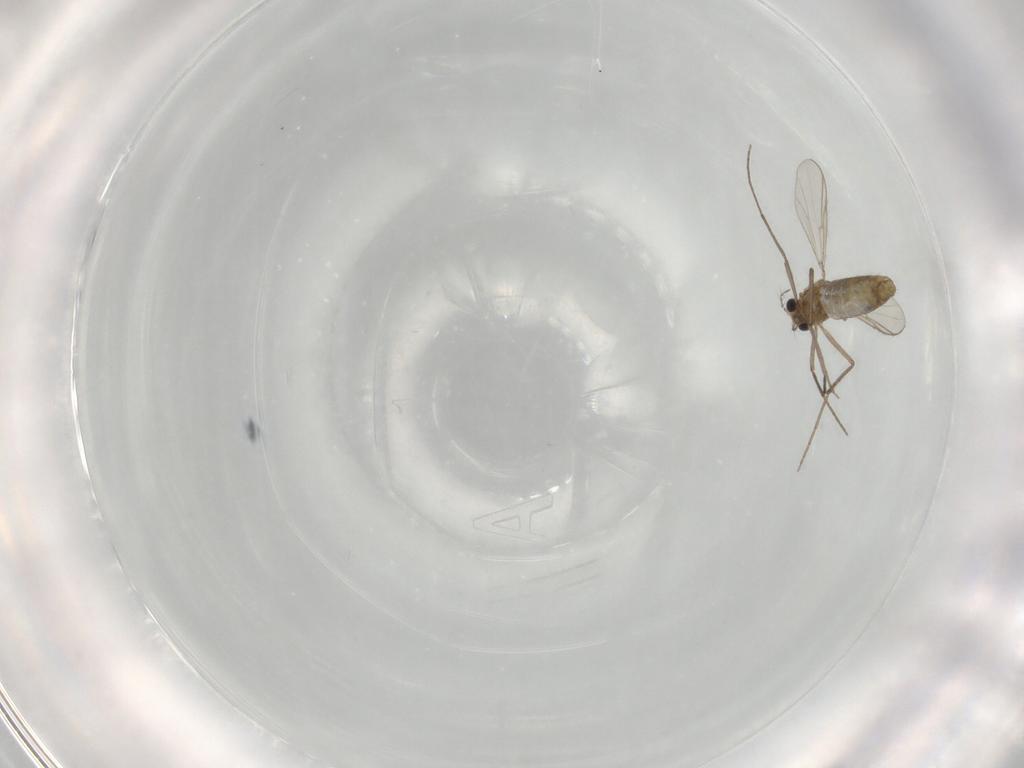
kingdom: Animalia
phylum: Arthropoda
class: Insecta
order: Diptera
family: Chironomidae
